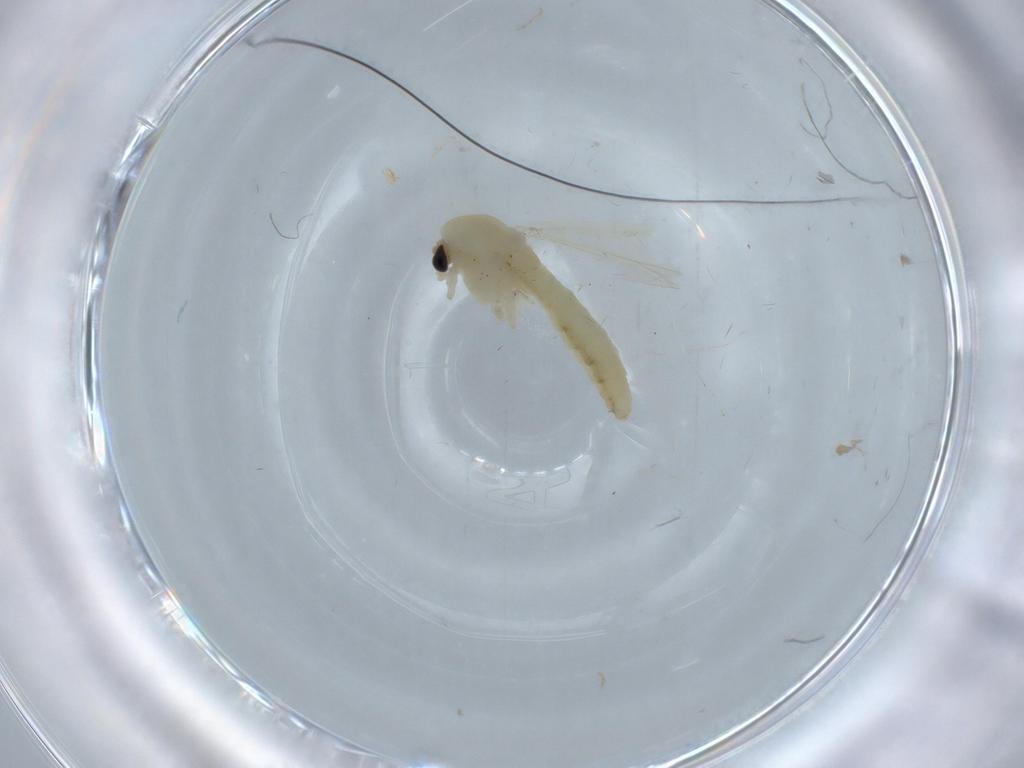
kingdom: Animalia
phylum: Arthropoda
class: Insecta
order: Diptera
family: Chironomidae
